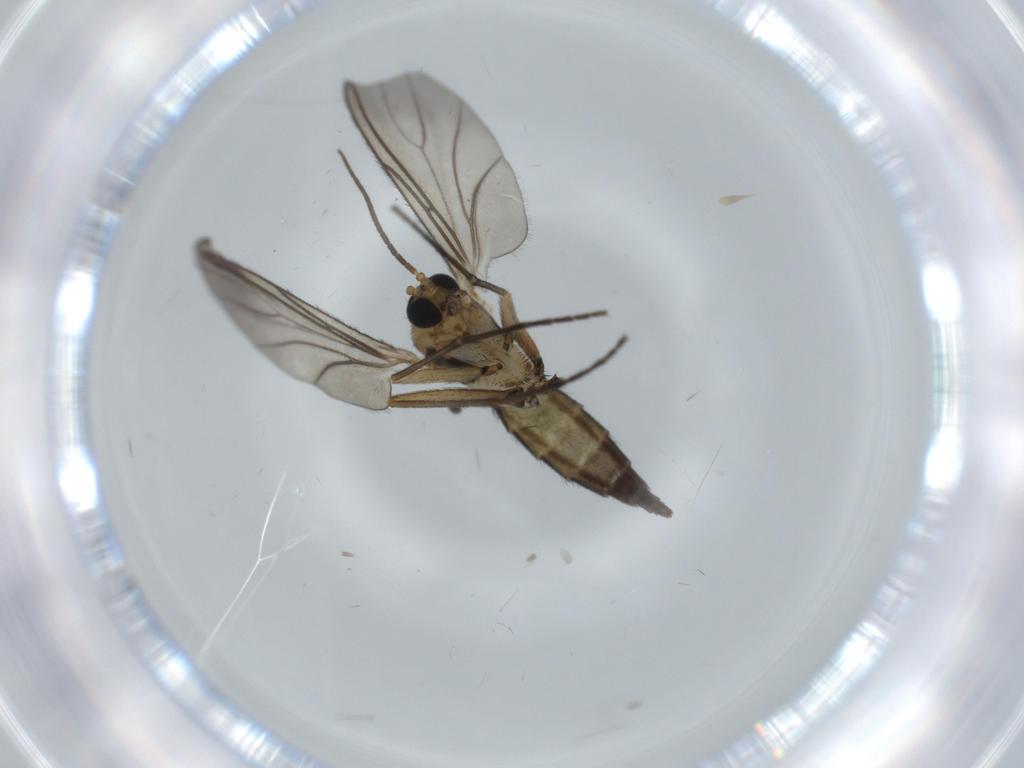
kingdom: Animalia
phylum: Arthropoda
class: Insecta
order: Diptera
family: Sciaridae
